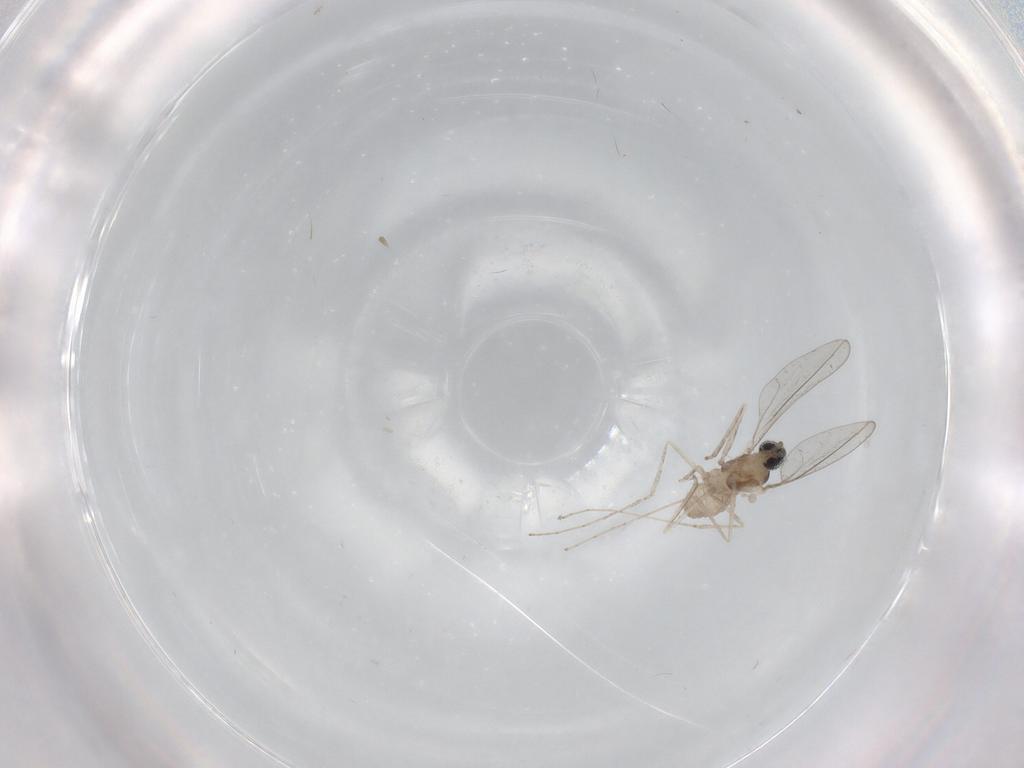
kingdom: Animalia
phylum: Arthropoda
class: Insecta
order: Diptera
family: Cecidomyiidae
